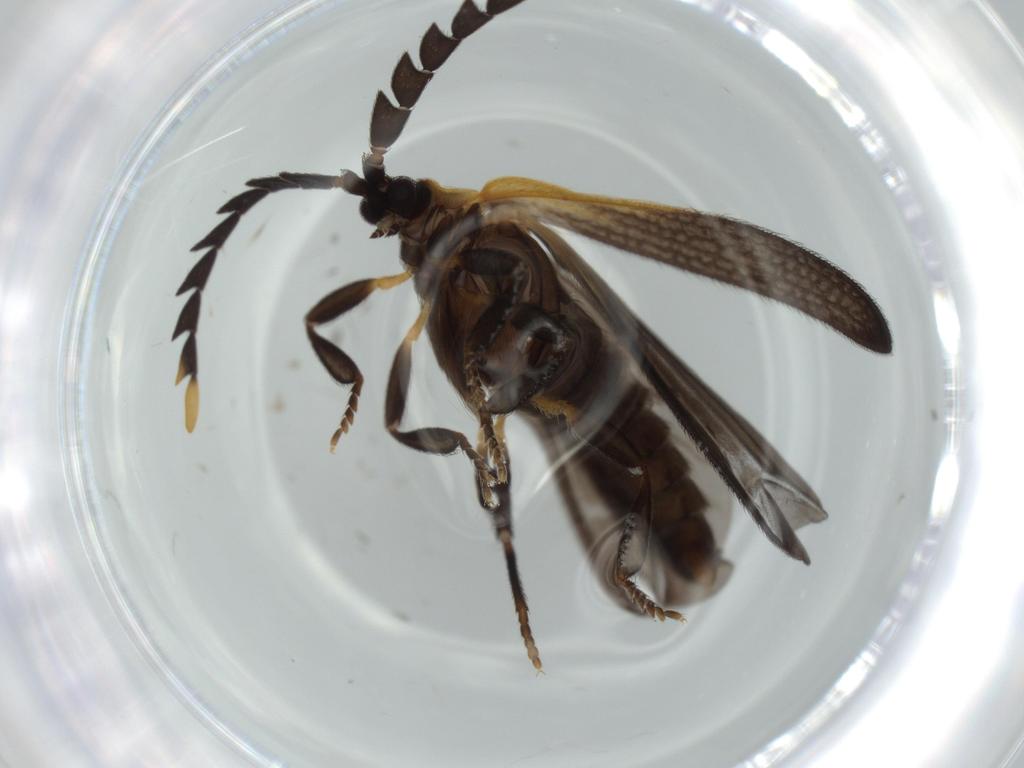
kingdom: Animalia
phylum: Arthropoda
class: Insecta
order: Coleoptera
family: Lycidae
